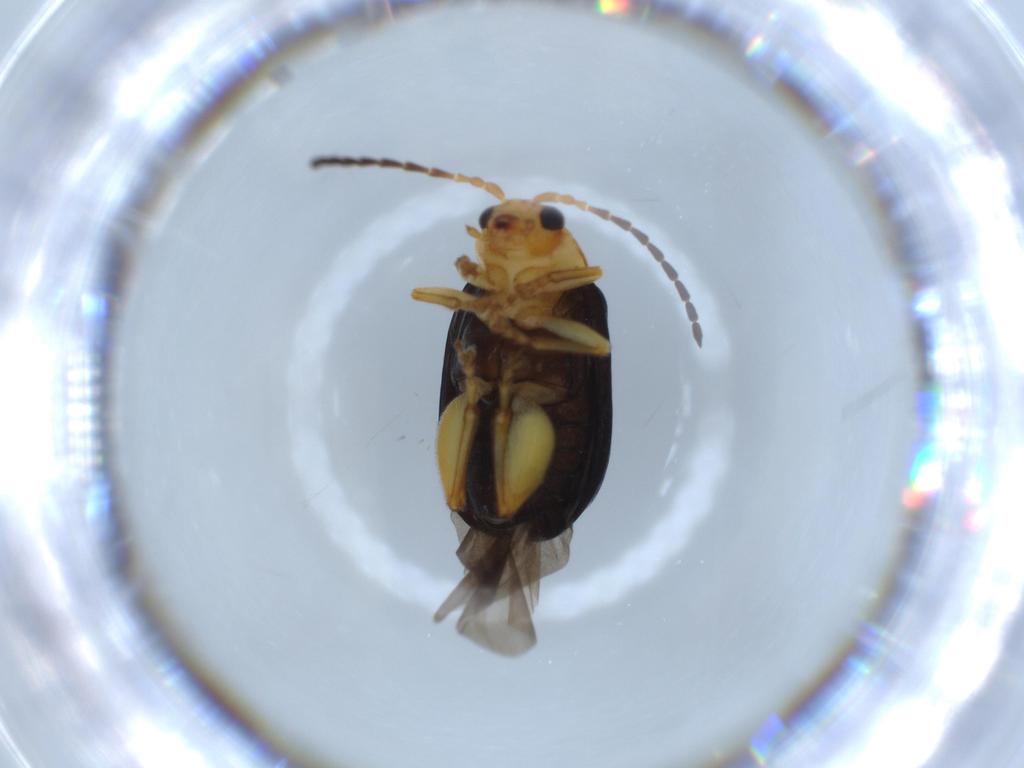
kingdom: Animalia
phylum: Arthropoda
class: Insecta
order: Coleoptera
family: Chrysomelidae
